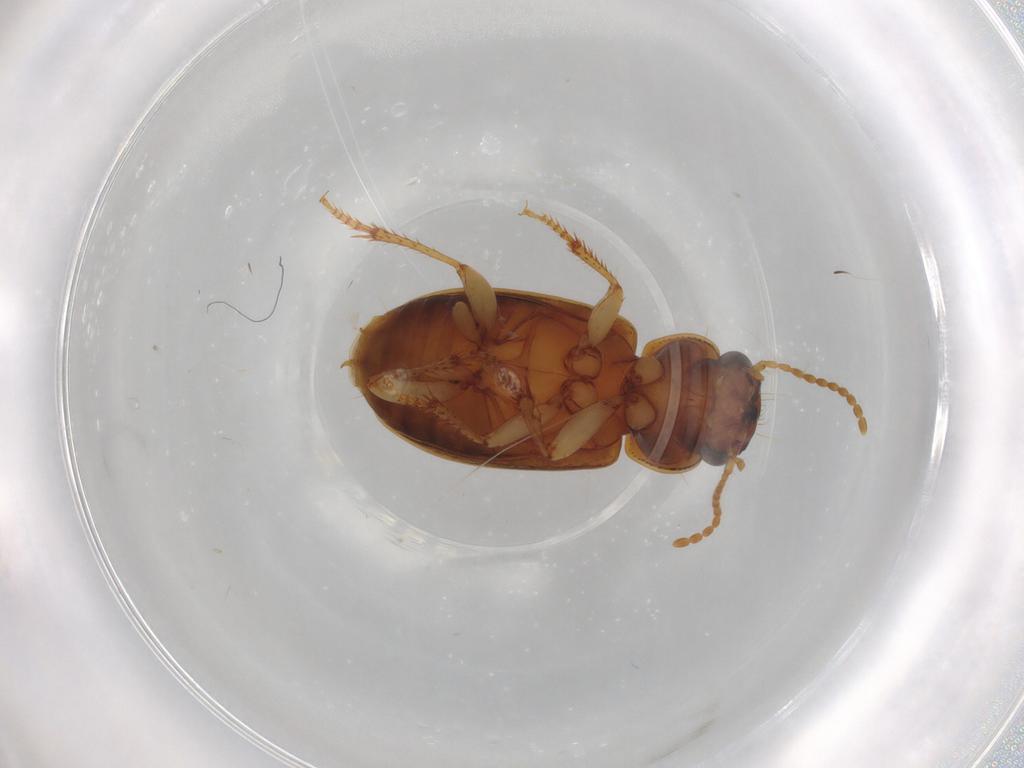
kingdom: Animalia
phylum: Arthropoda
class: Insecta
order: Coleoptera
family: Carabidae
